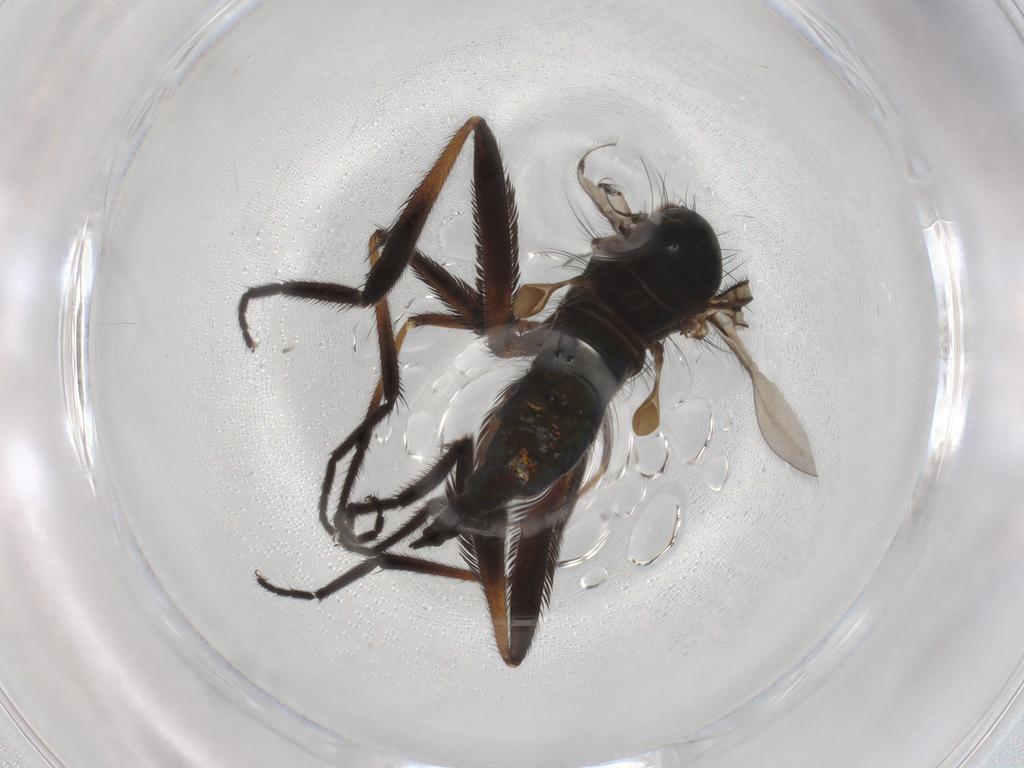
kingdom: Animalia
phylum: Arthropoda
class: Insecta
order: Diptera
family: Empididae
